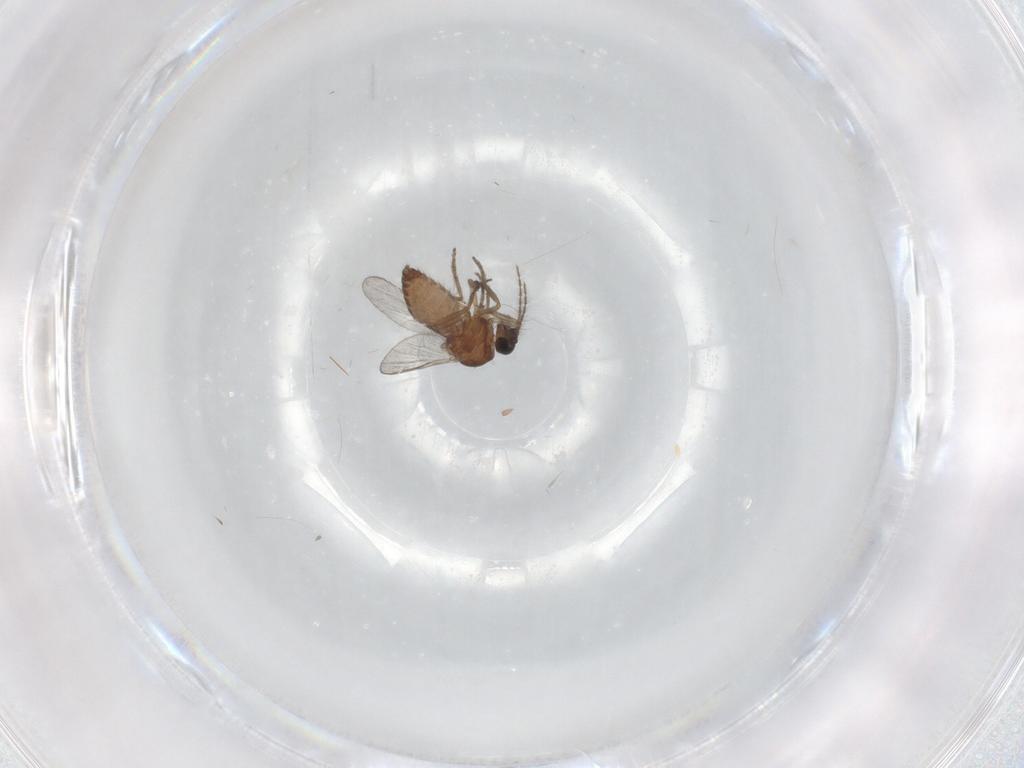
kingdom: Animalia
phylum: Arthropoda
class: Insecta
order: Diptera
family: Ceratopogonidae
